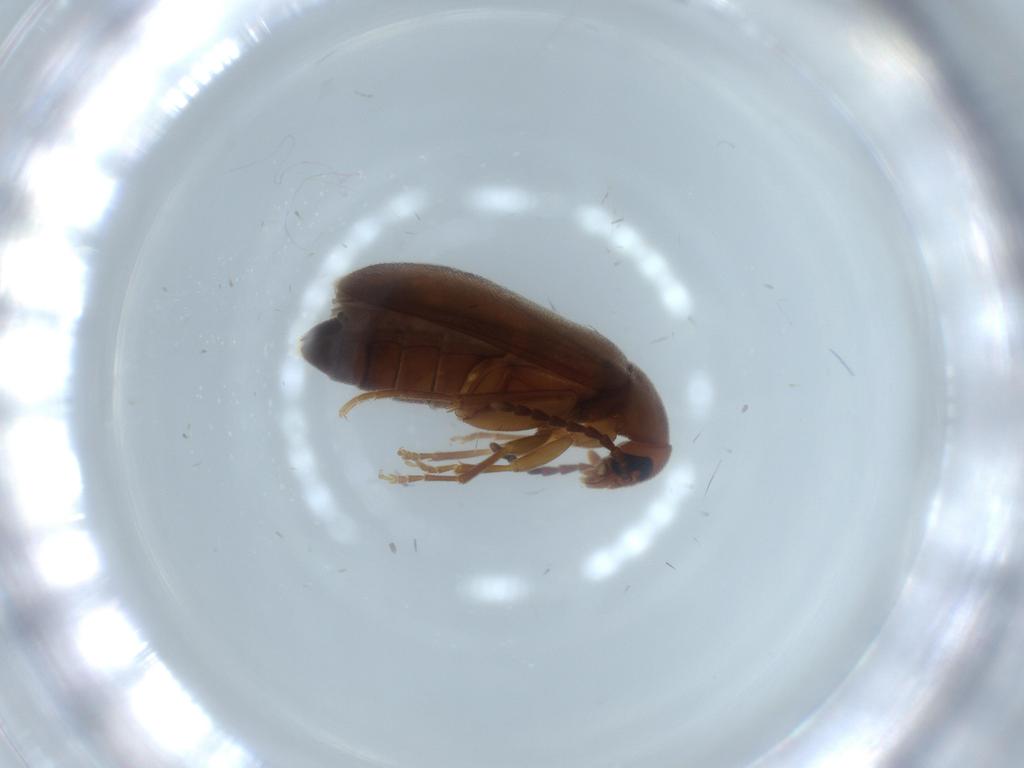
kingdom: Animalia
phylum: Arthropoda
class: Insecta
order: Coleoptera
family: Scraptiidae
